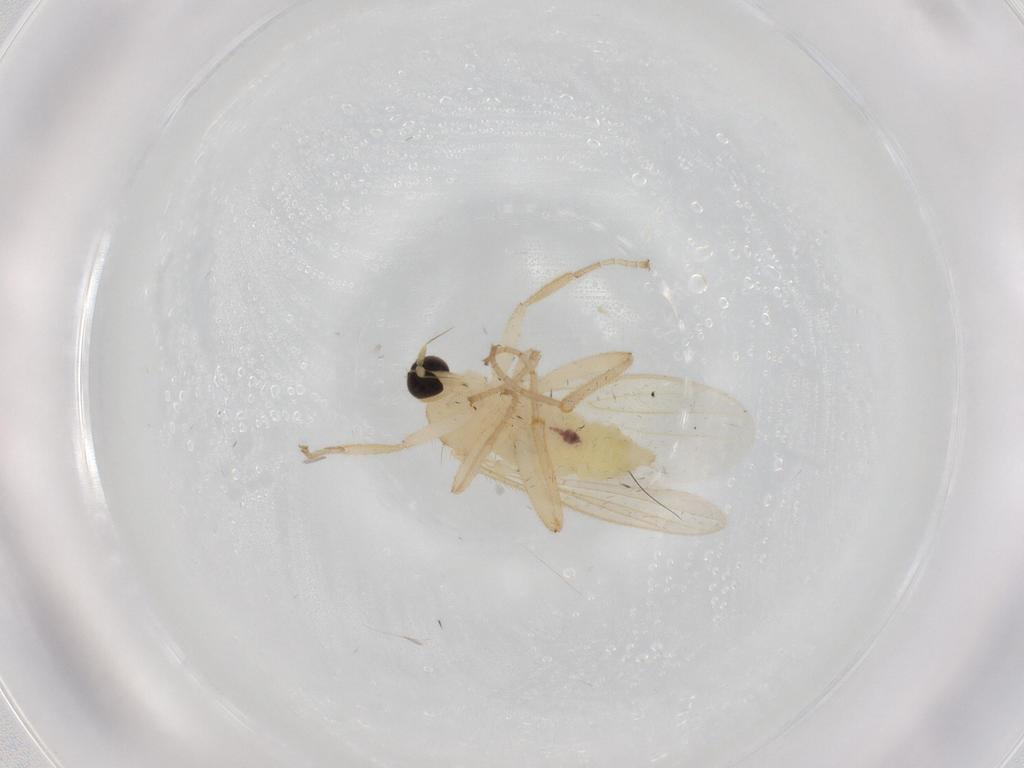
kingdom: Animalia
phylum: Arthropoda
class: Insecta
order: Diptera
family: Hybotidae
